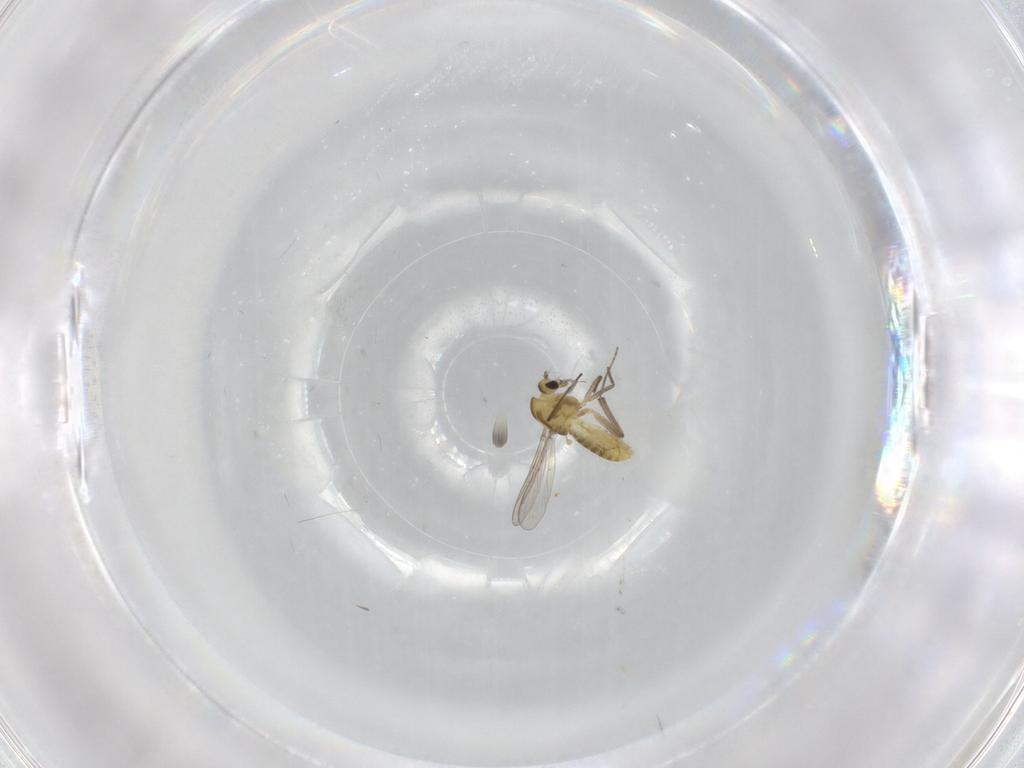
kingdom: Animalia
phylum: Arthropoda
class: Insecta
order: Diptera
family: Chironomidae
